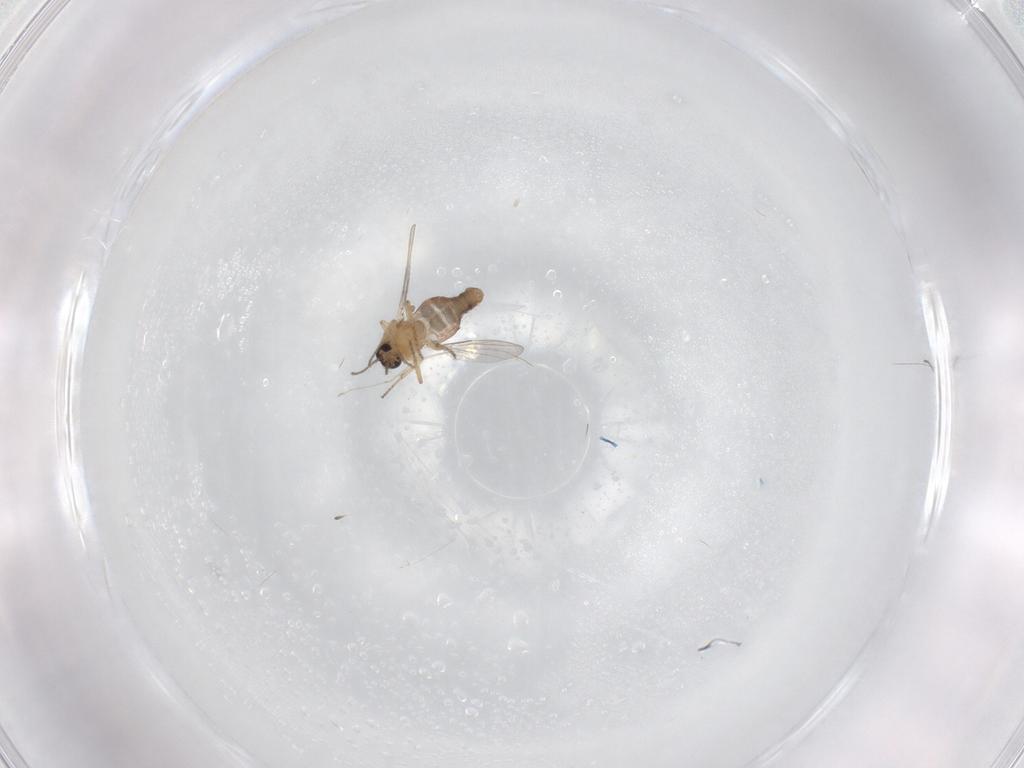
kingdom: Animalia
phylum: Arthropoda
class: Insecta
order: Diptera
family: Ceratopogonidae
